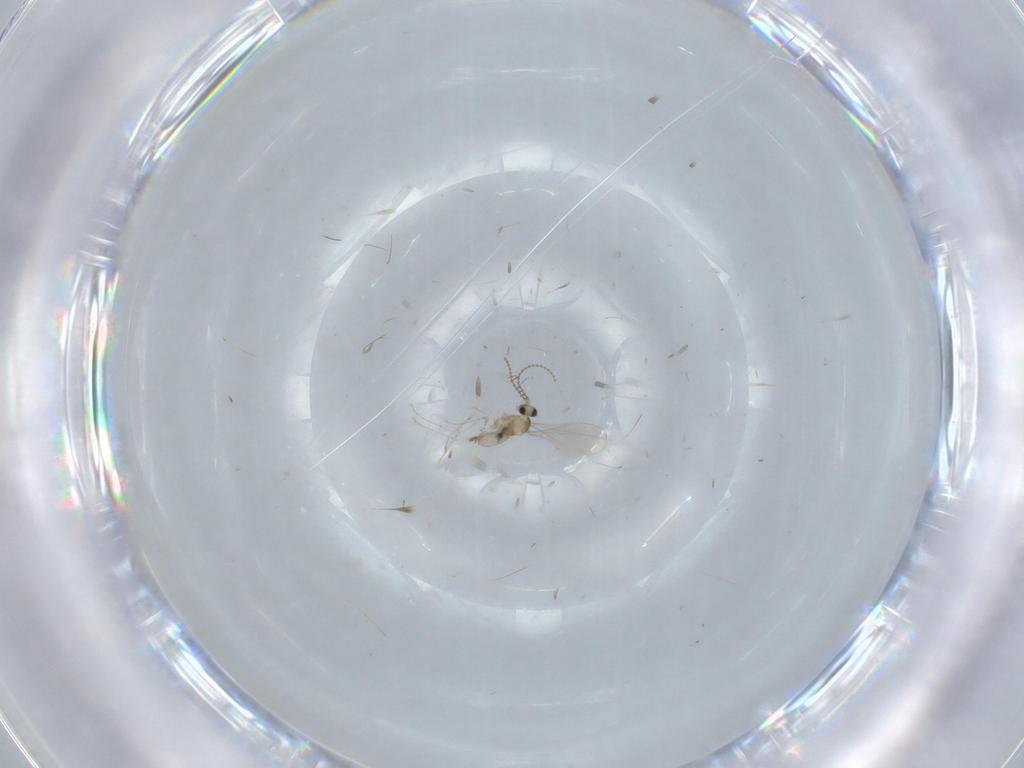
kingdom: Animalia
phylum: Arthropoda
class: Insecta
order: Diptera
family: Cecidomyiidae
